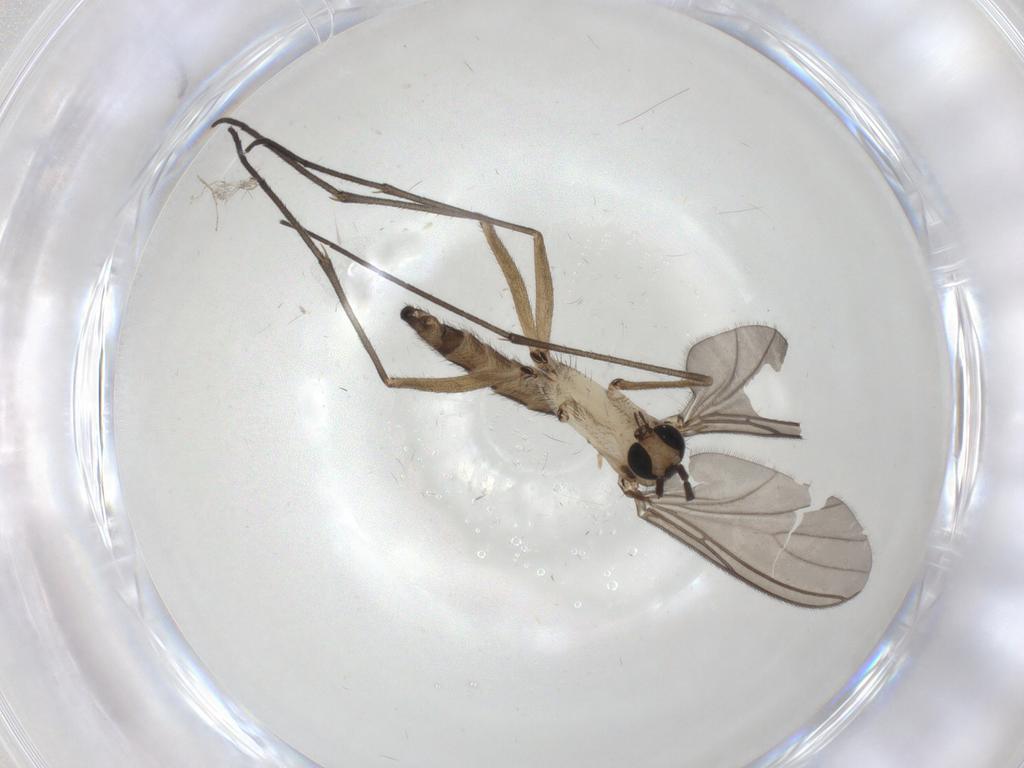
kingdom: Animalia
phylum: Arthropoda
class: Insecta
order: Diptera
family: Sciaridae
